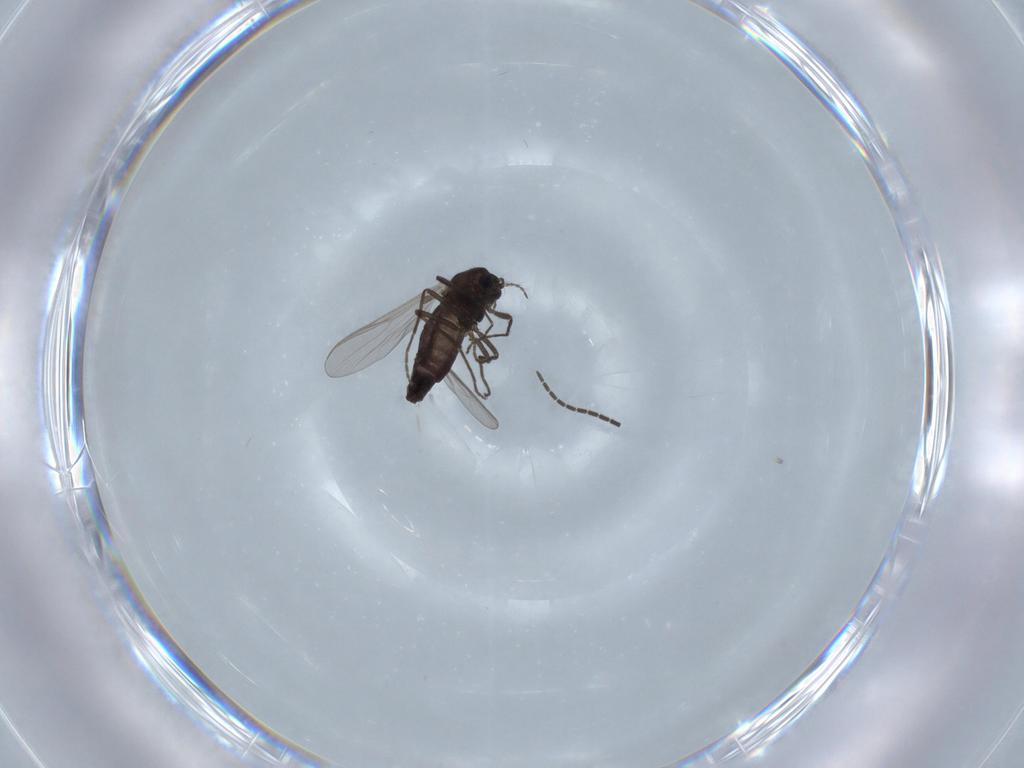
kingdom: Animalia
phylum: Arthropoda
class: Insecta
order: Diptera
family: Chironomidae
